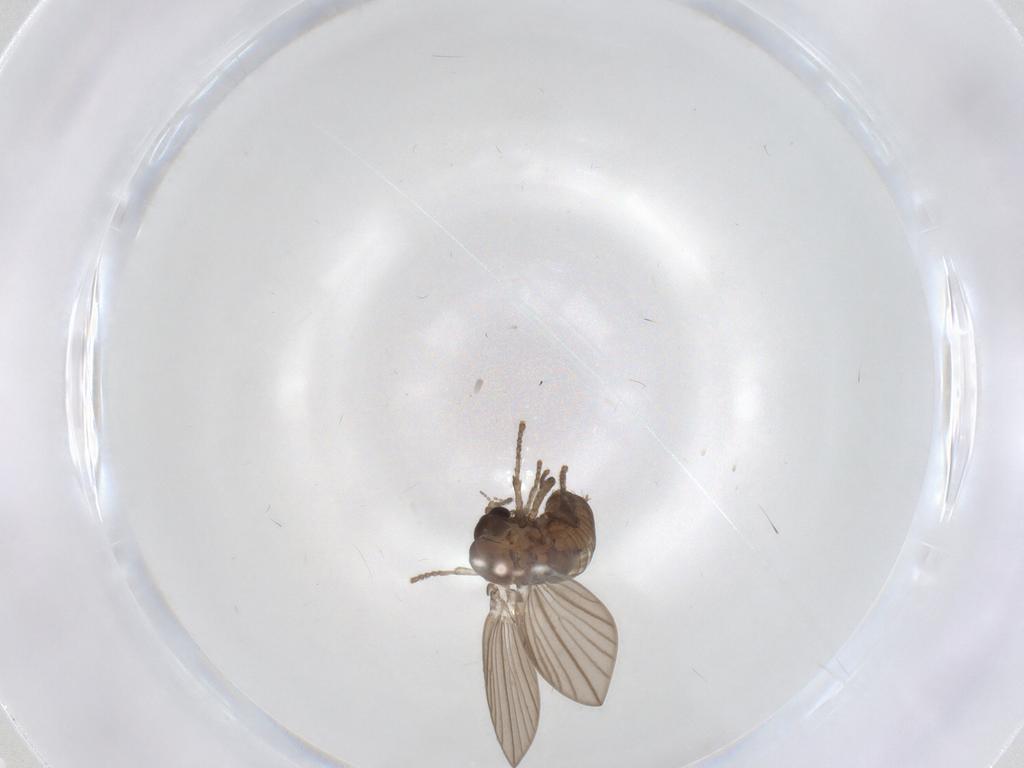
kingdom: Animalia
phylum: Arthropoda
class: Insecta
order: Diptera
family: Psychodidae
